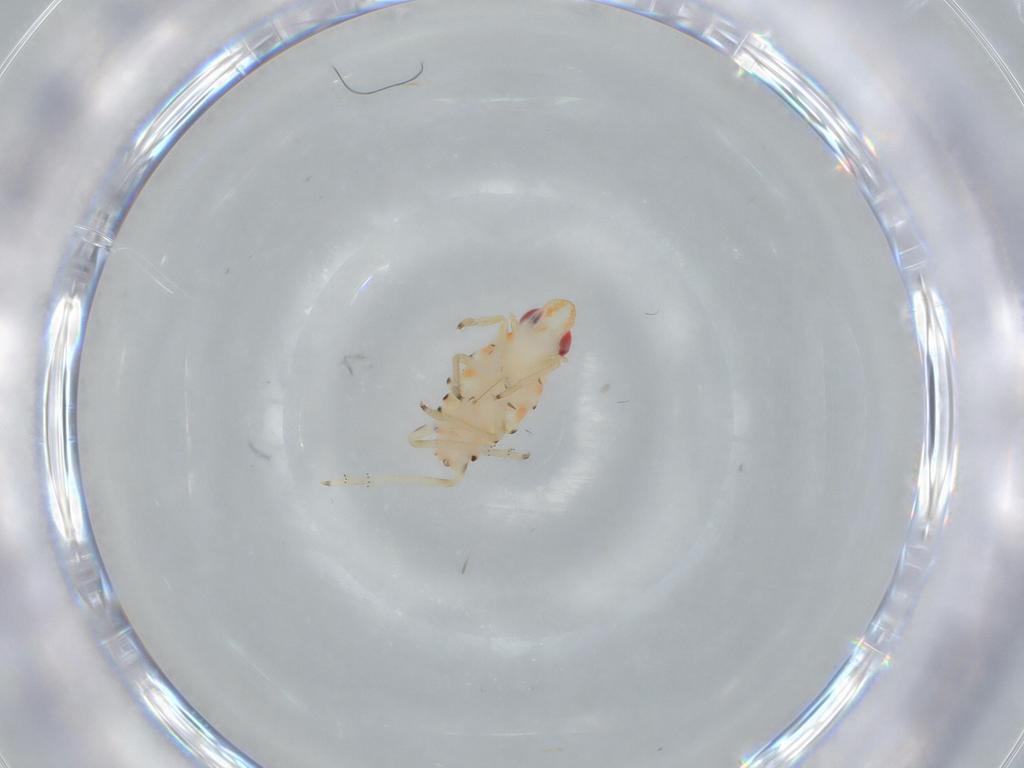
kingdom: Animalia
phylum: Arthropoda
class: Insecta
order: Hemiptera
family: Tropiduchidae
